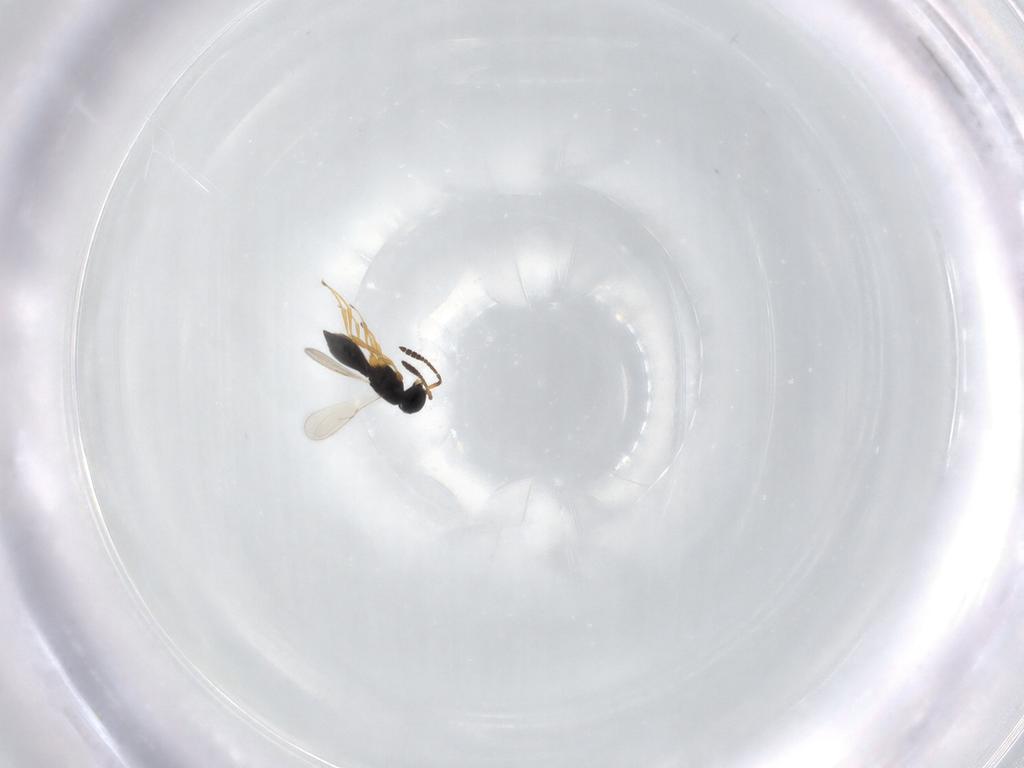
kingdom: Animalia
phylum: Arthropoda
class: Insecta
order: Hymenoptera
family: Scelionidae
